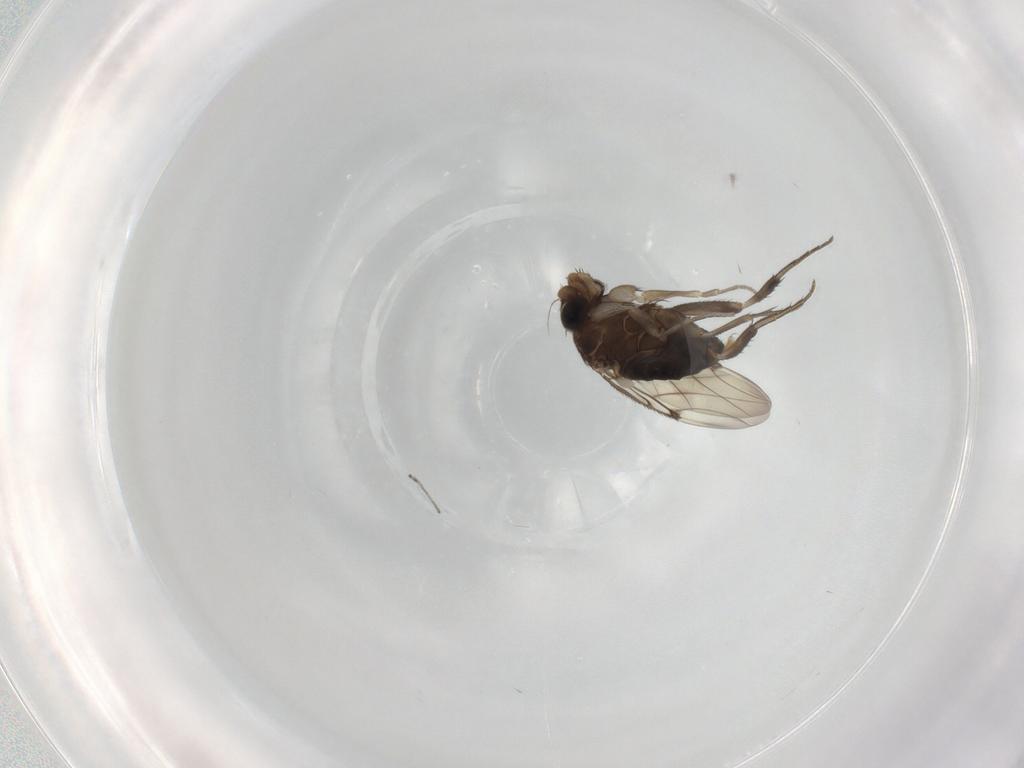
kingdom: Animalia
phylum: Arthropoda
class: Insecta
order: Diptera
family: Phoridae
